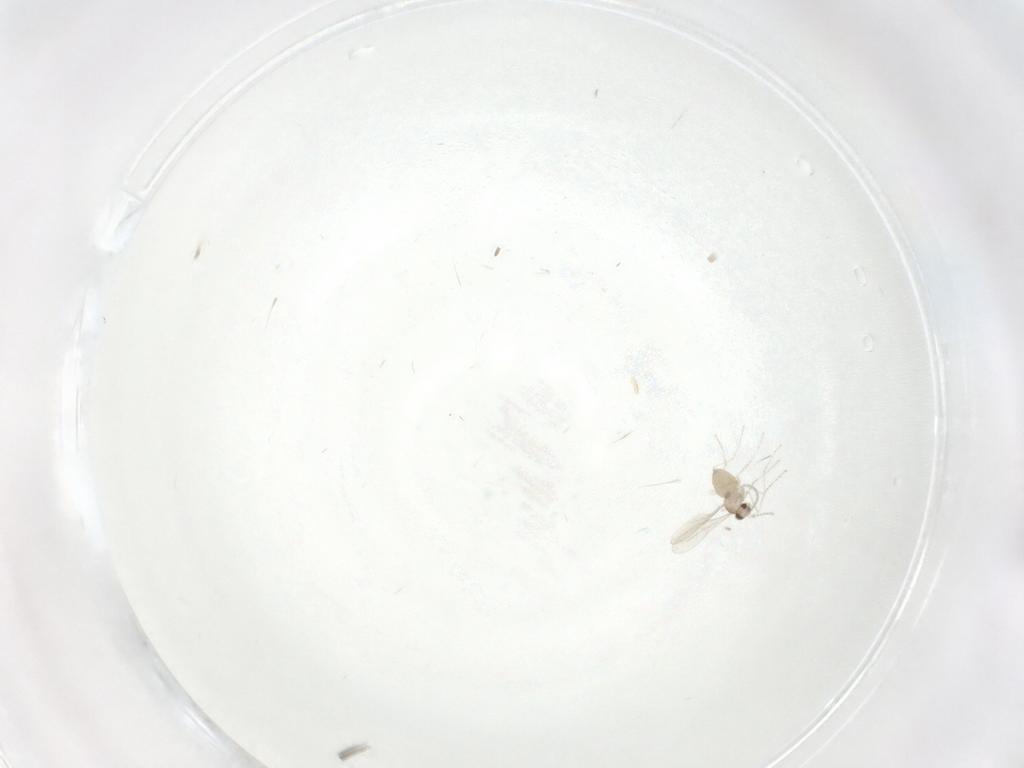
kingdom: Animalia
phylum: Arthropoda
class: Insecta
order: Diptera
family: Cecidomyiidae
